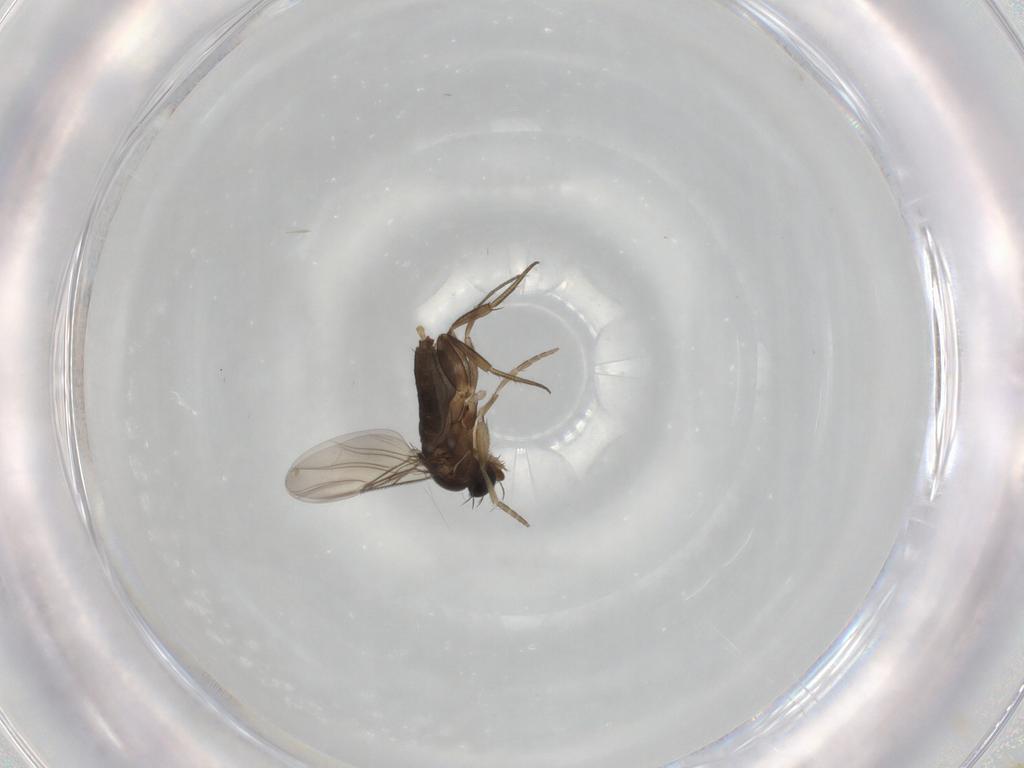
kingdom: Animalia
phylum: Arthropoda
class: Insecta
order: Diptera
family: Phoridae
